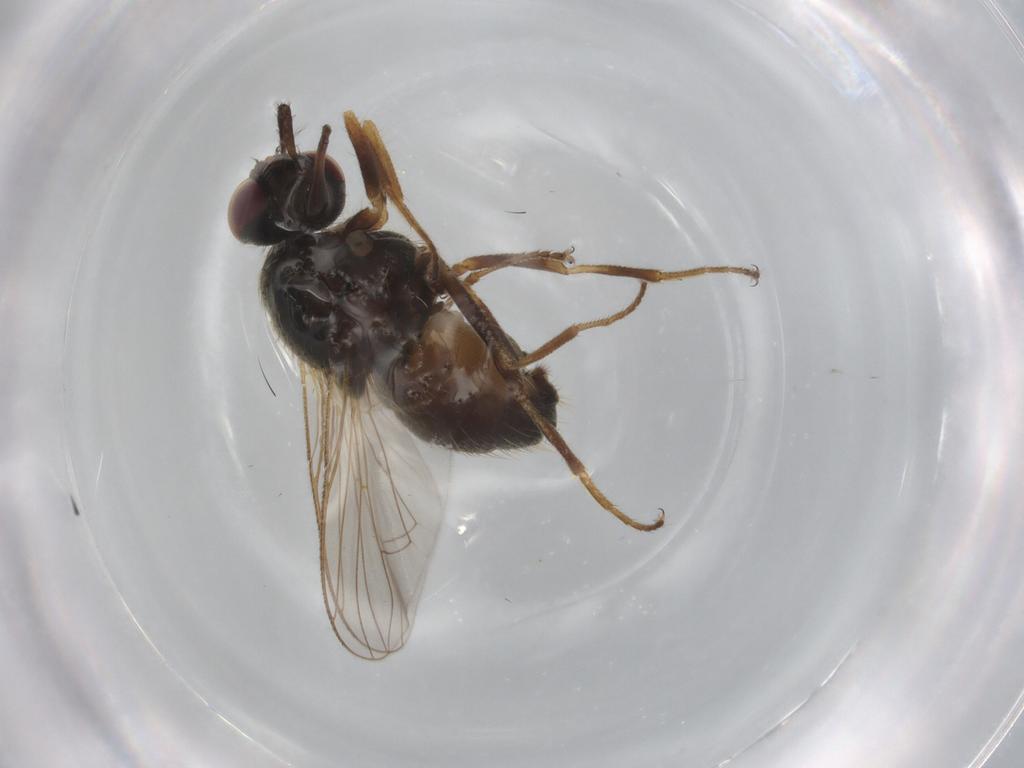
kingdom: Animalia
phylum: Arthropoda
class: Insecta
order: Diptera
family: Muscidae
